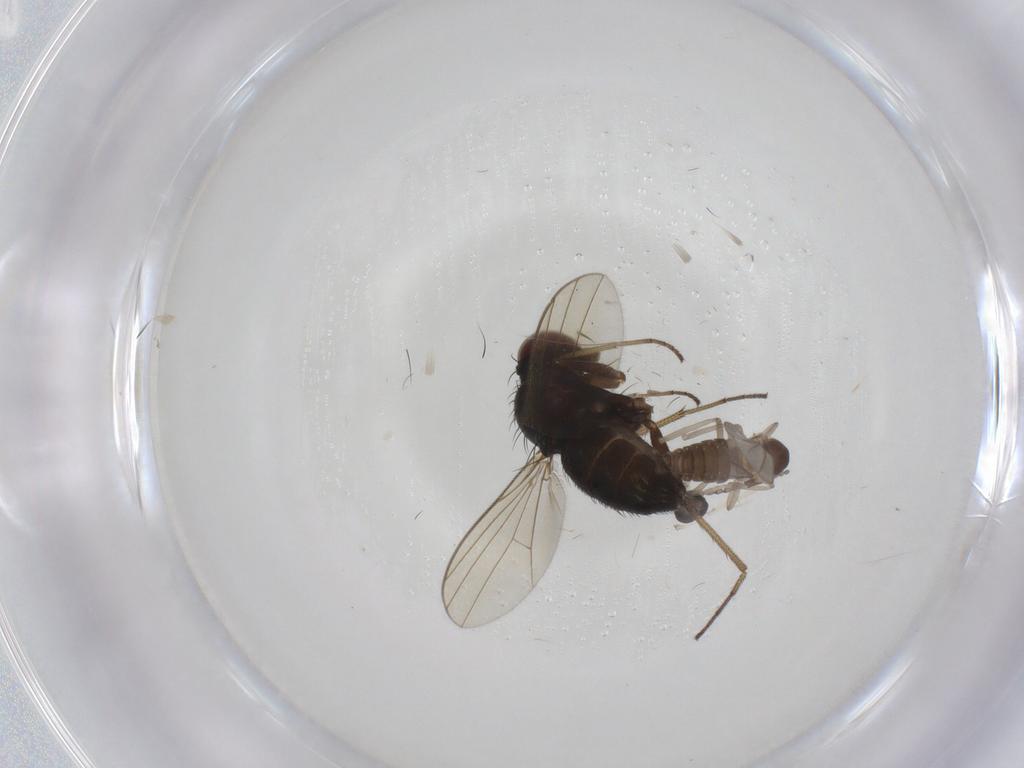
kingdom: Animalia
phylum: Arthropoda
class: Insecta
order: Diptera
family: Dolichopodidae
